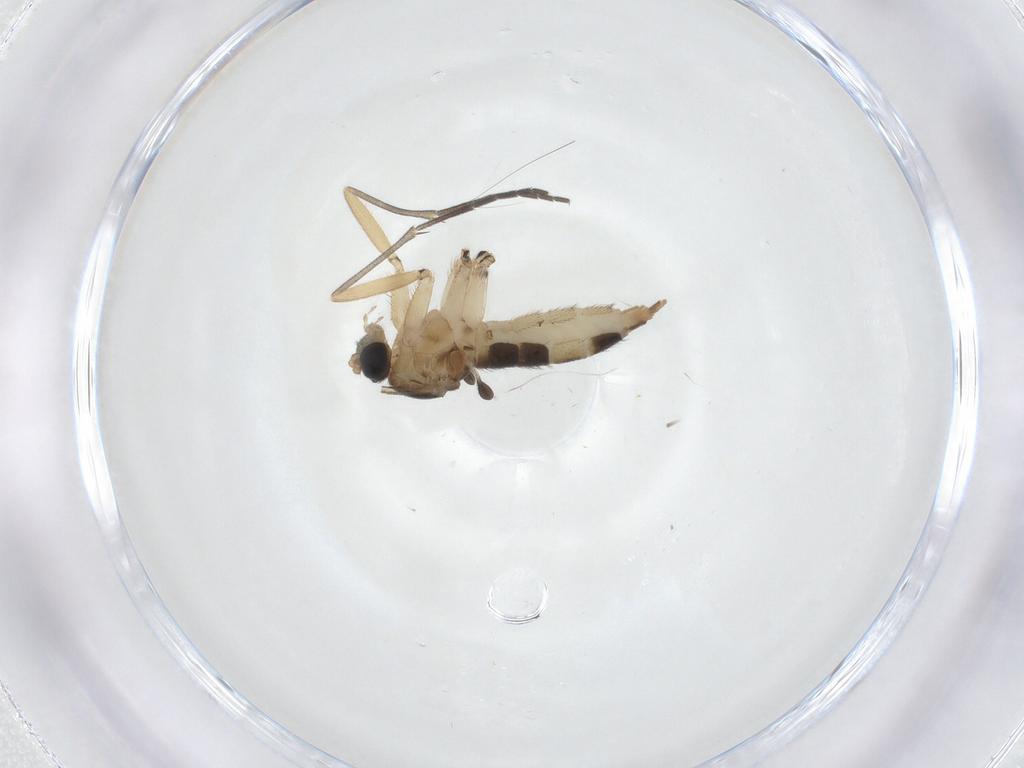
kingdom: Animalia
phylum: Arthropoda
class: Insecta
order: Diptera
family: Sciaridae
